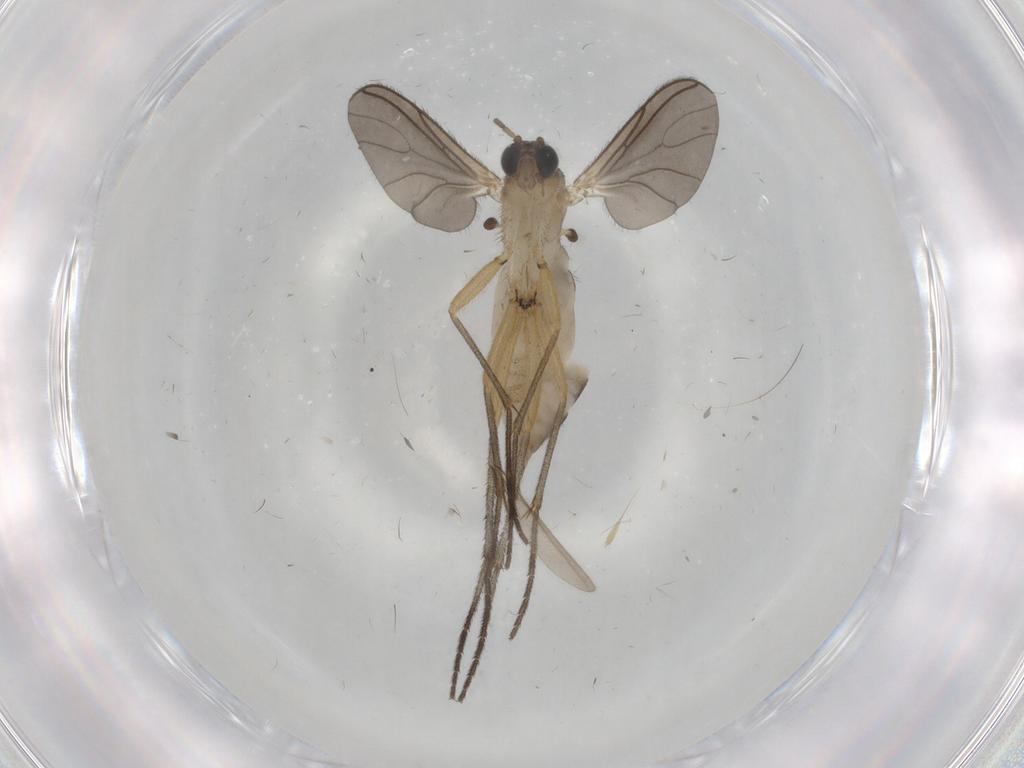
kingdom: Animalia
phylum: Arthropoda
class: Insecta
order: Diptera
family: Sciaridae
